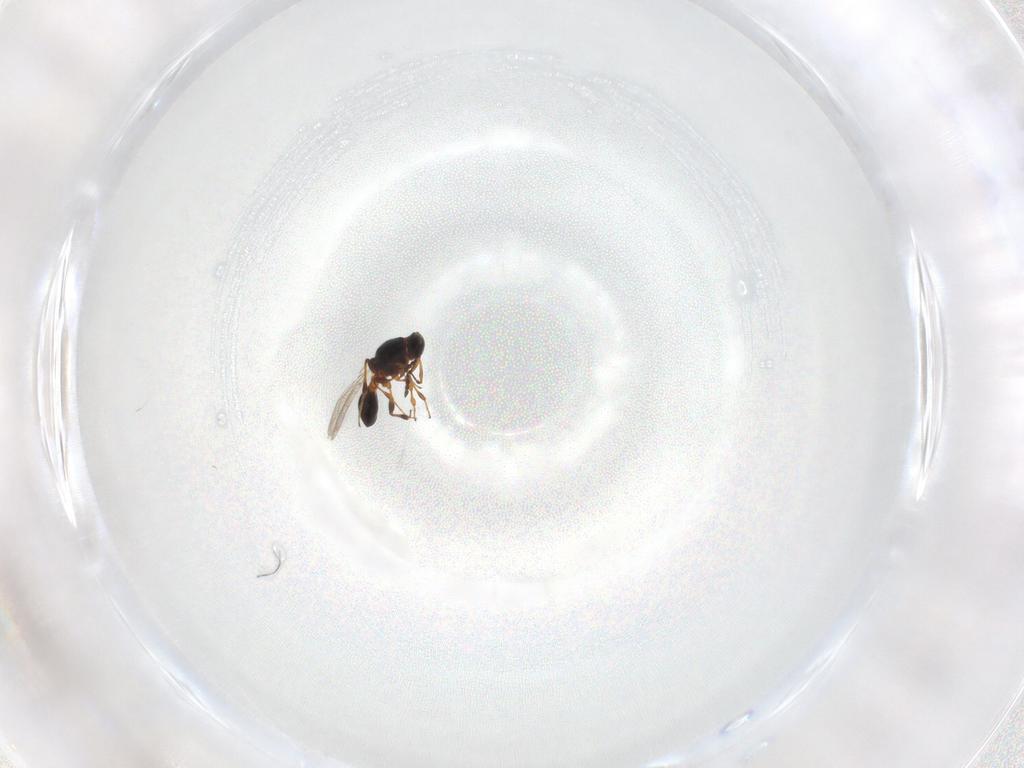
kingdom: Animalia
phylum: Arthropoda
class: Insecta
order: Hymenoptera
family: Platygastridae
